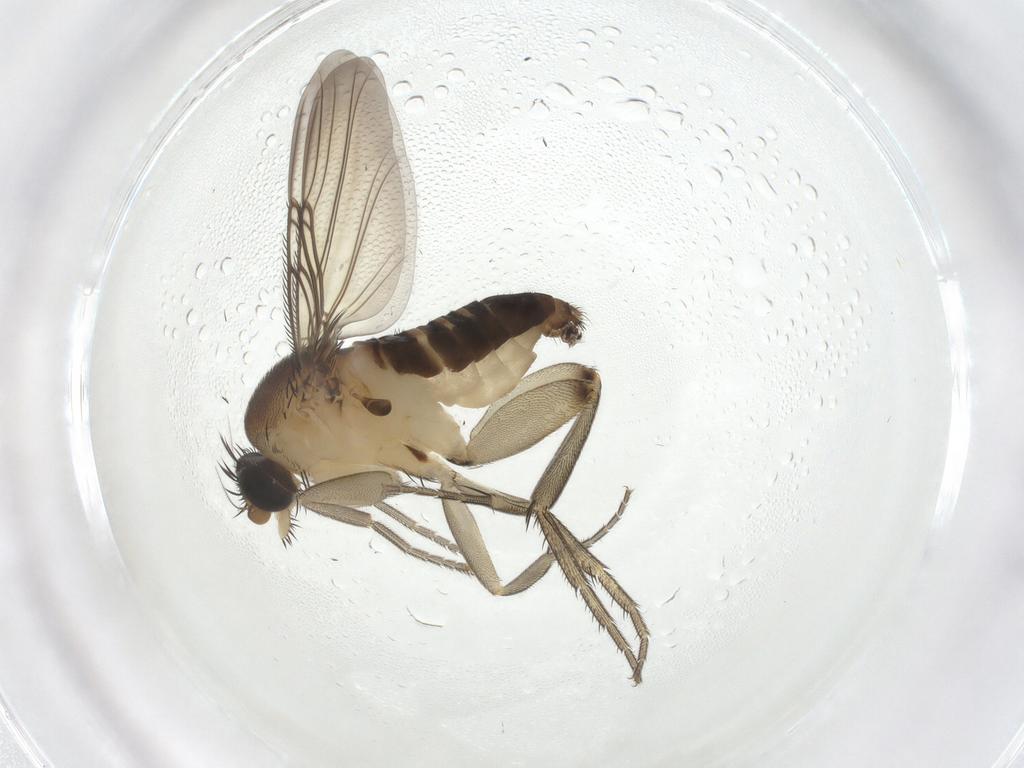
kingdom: Animalia
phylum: Arthropoda
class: Insecta
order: Diptera
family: Phoridae
